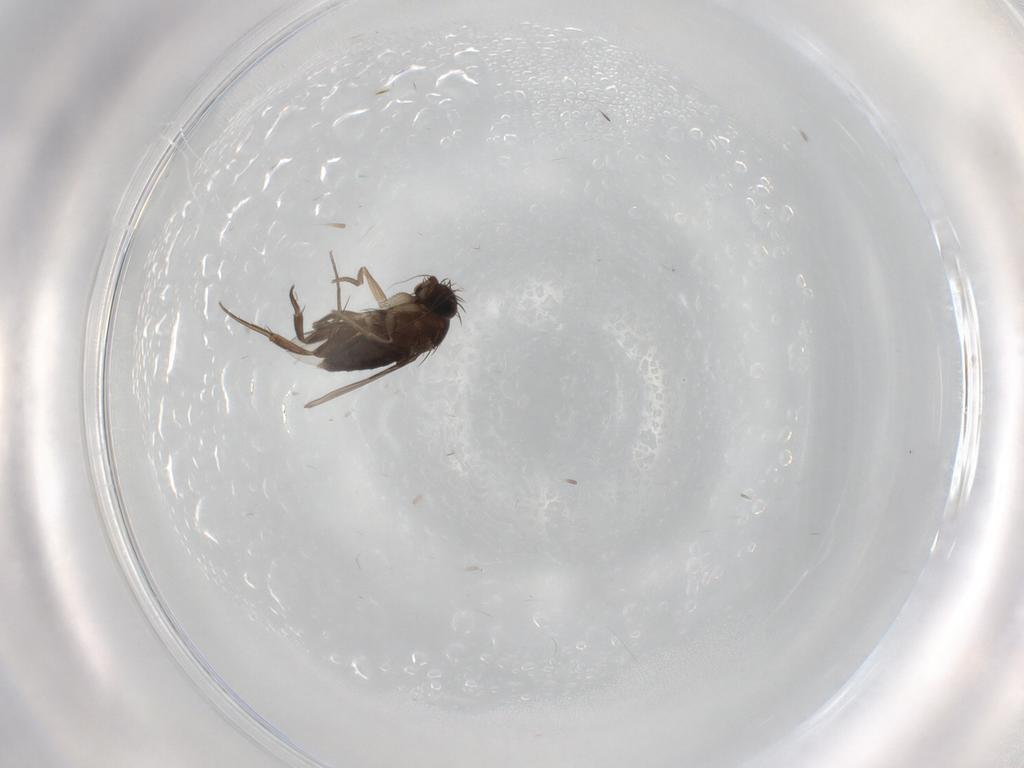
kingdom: Animalia
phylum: Arthropoda
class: Insecta
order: Diptera
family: Phoridae
